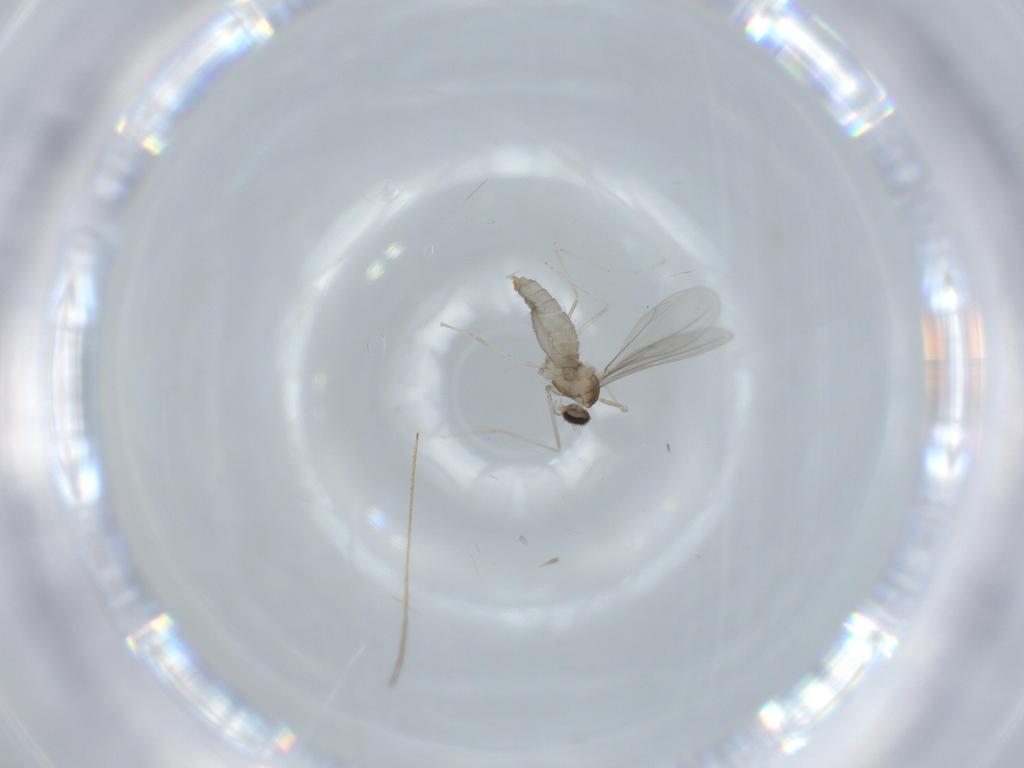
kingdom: Animalia
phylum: Arthropoda
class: Insecta
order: Diptera
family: Cecidomyiidae
